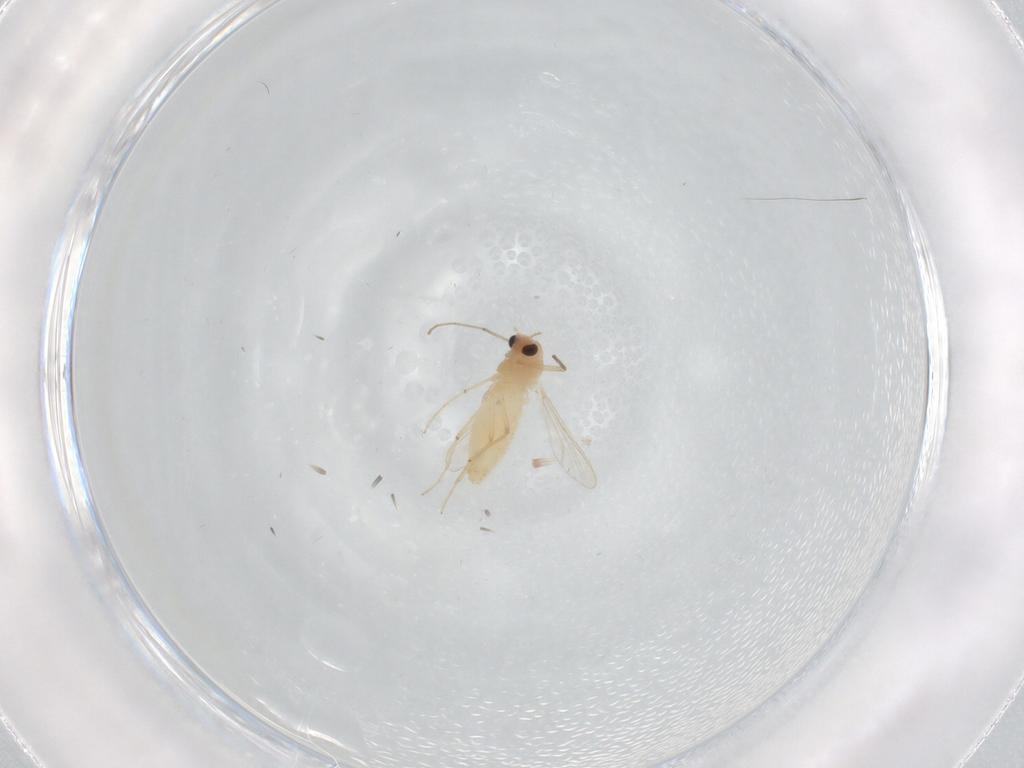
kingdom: Animalia
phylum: Arthropoda
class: Insecta
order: Diptera
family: Chironomidae
